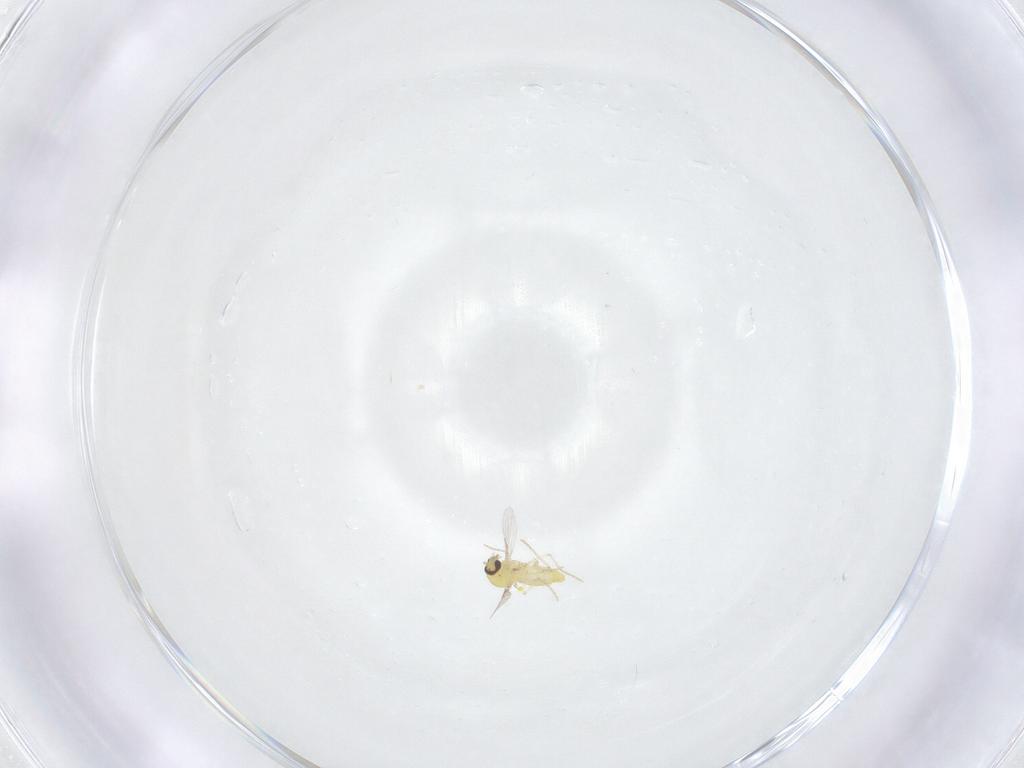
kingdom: Animalia
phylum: Arthropoda
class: Insecta
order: Diptera
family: Ceratopogonidae
